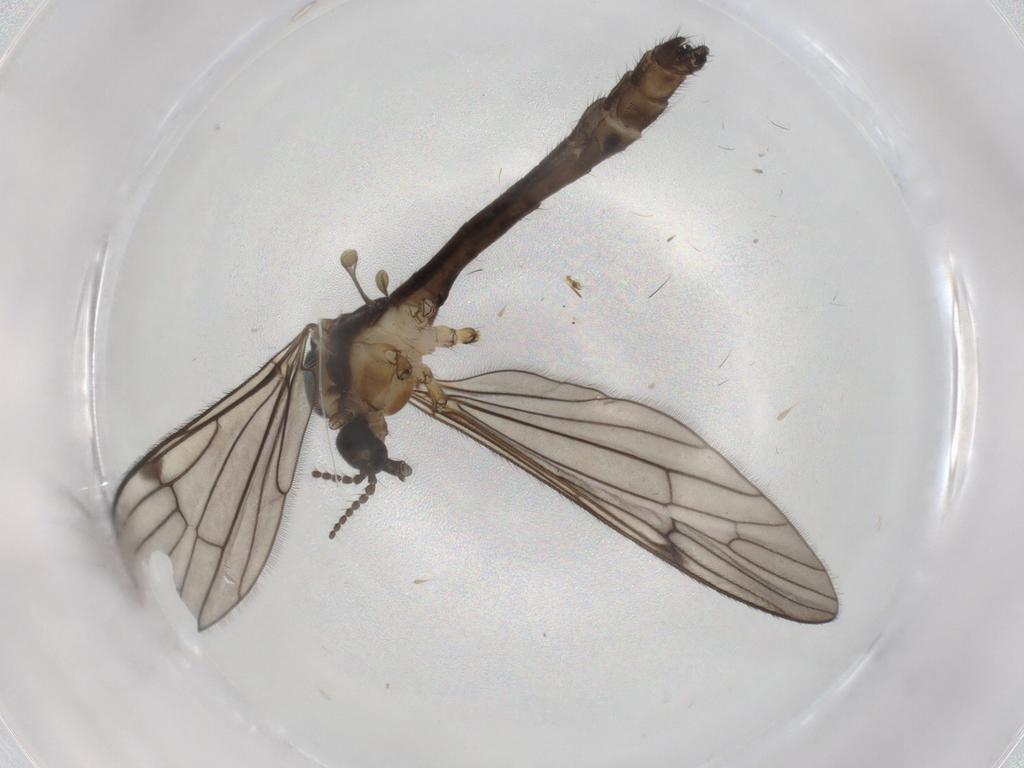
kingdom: Animalia
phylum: Arthropoda
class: Insecta
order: Diptera
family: Limoniidae
